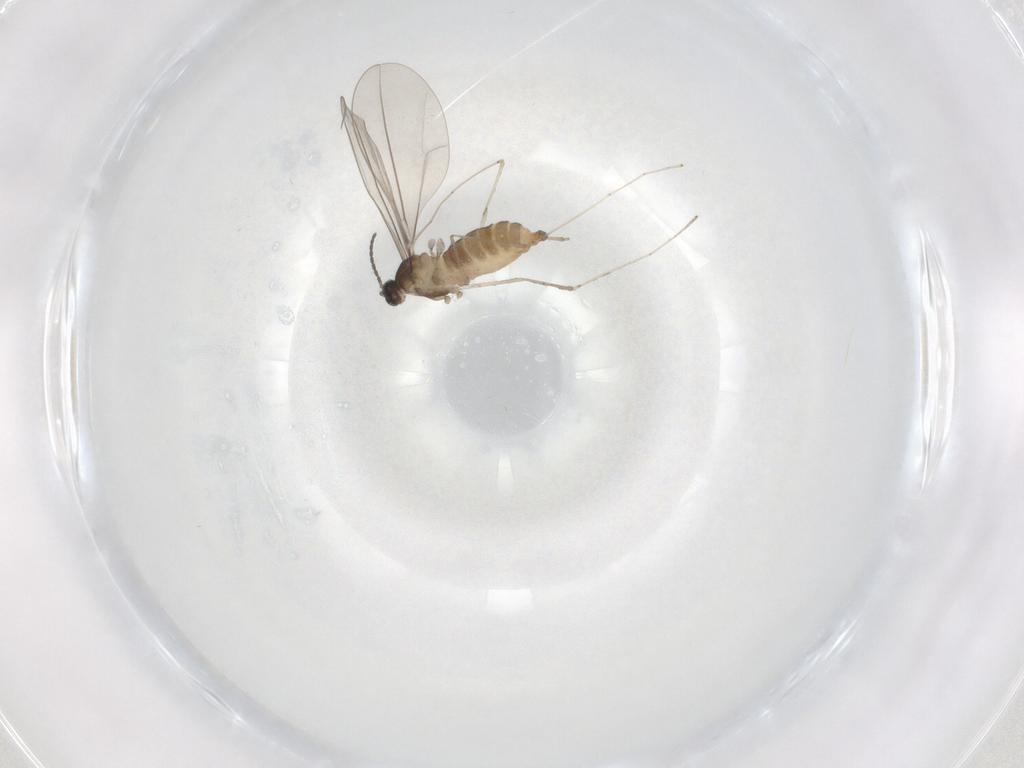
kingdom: Animalia
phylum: Arthropoda
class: Insecta
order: Diptera
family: Cecidomyiidae
